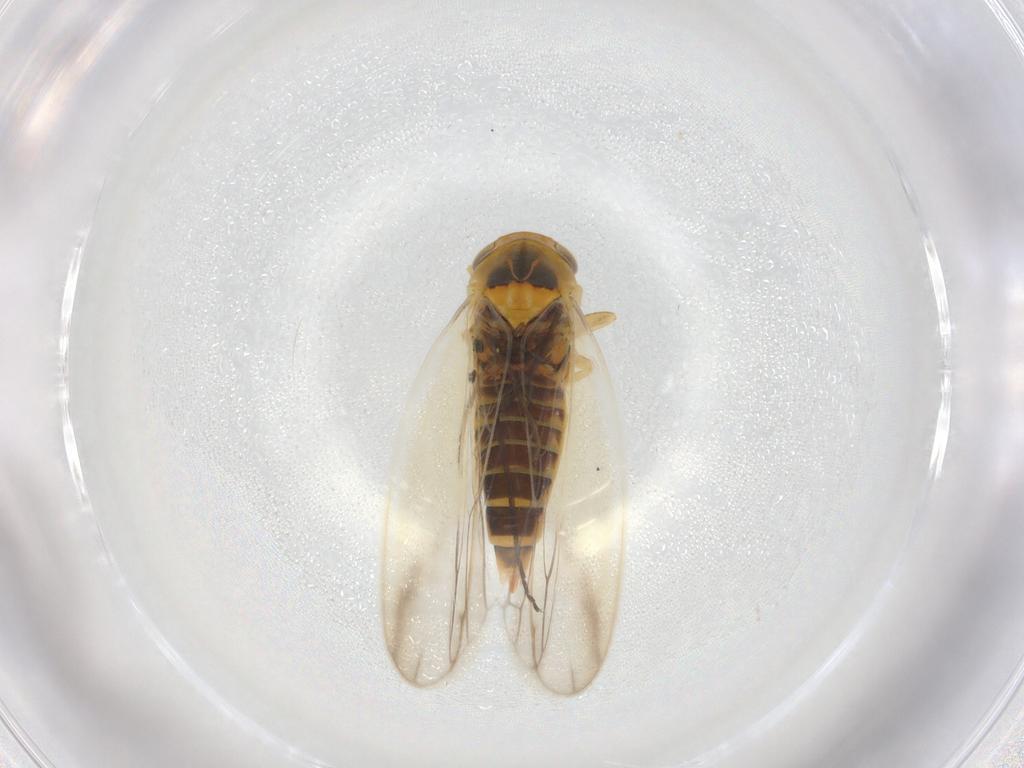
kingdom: Animalia
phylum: Arthropoda
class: Insecta
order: Hemiptera
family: Cicadellidae
